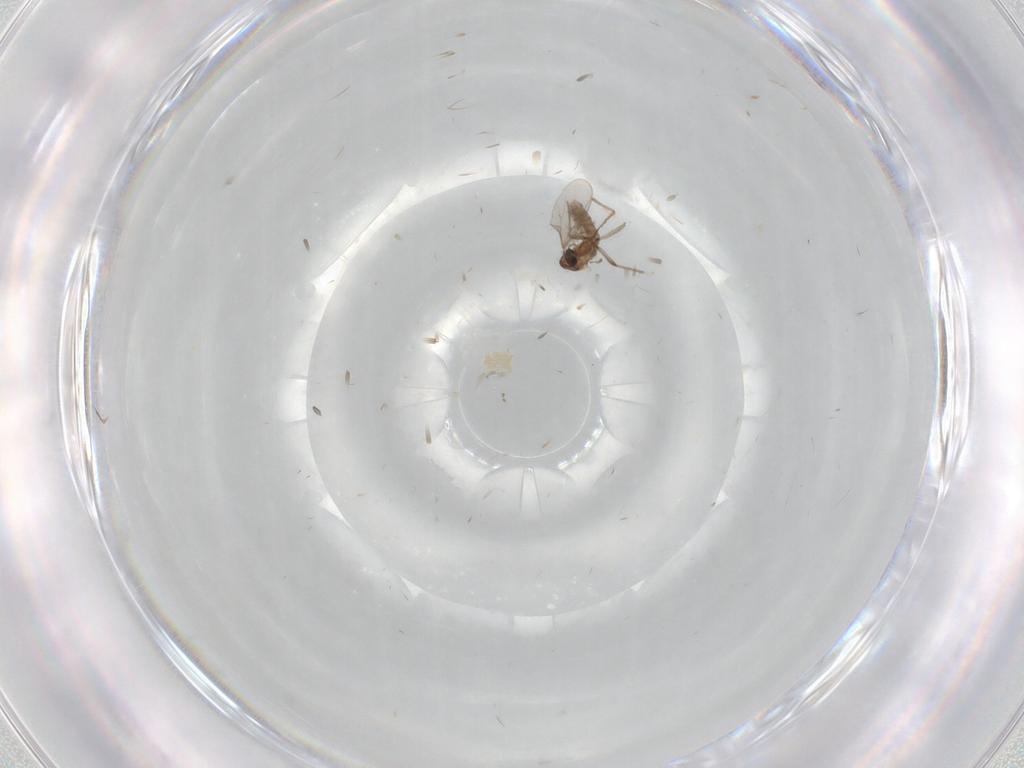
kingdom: Animalia
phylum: Arthropoda
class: Insecta
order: Diptera
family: Chironomidae
